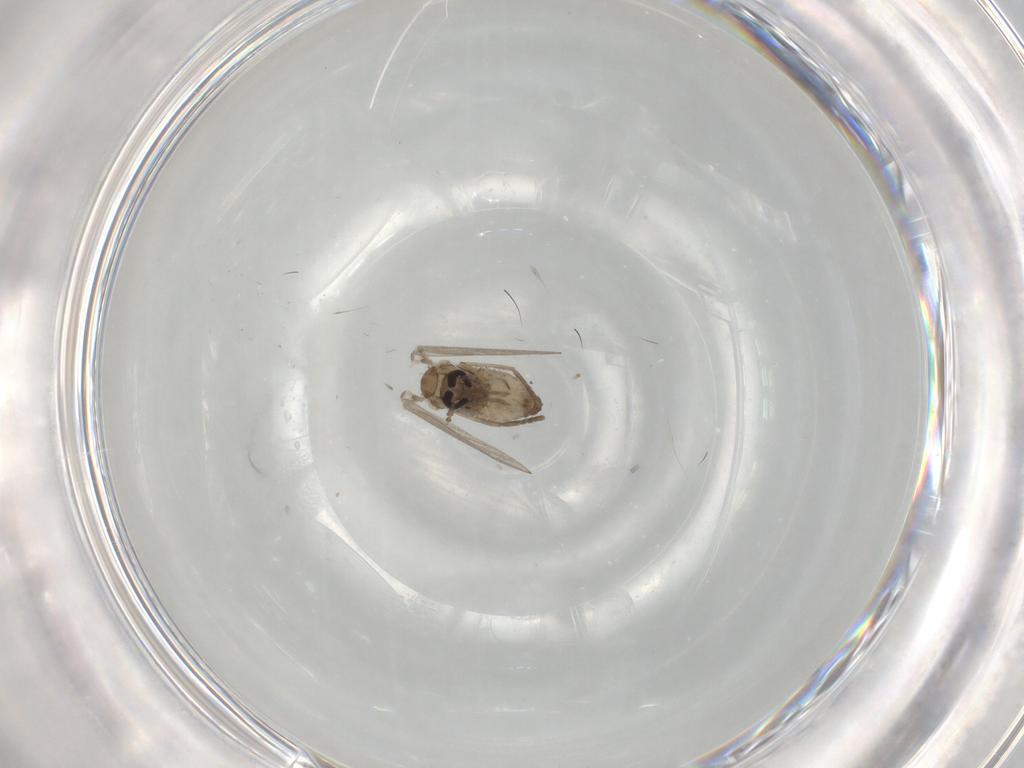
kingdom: Animalia
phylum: Arthropoda
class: Insecta
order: Diptera
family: Psychodidae
